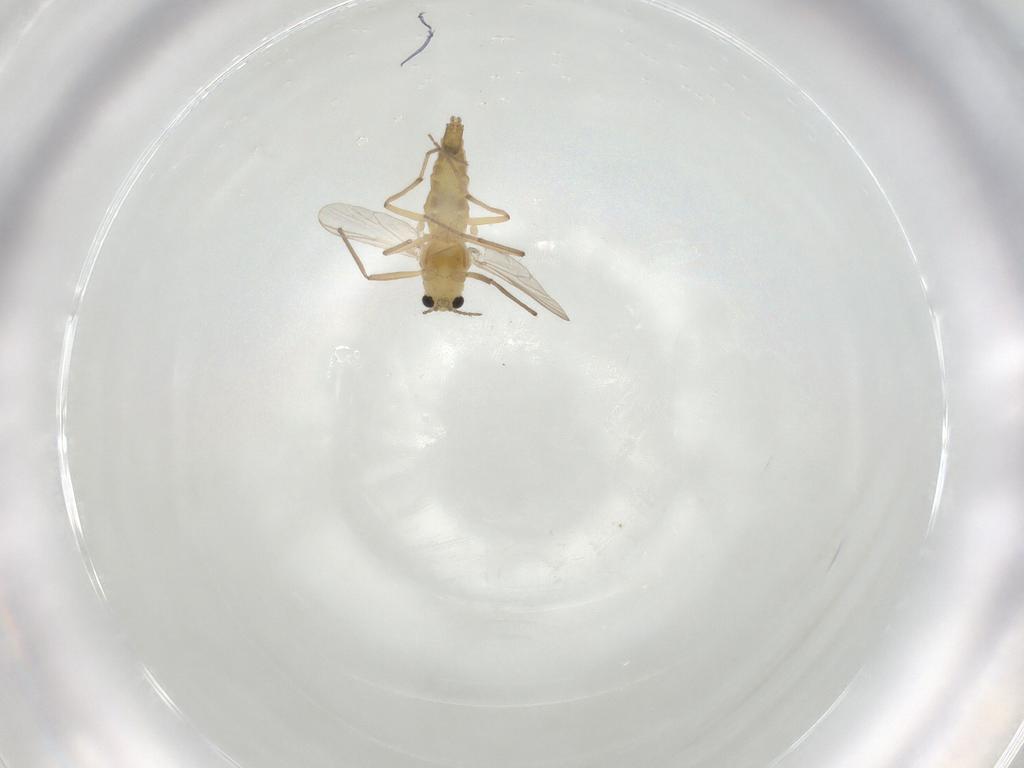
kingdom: Animalia
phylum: Arthropoda
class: Insecta
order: Diptera
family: Chironomidae
